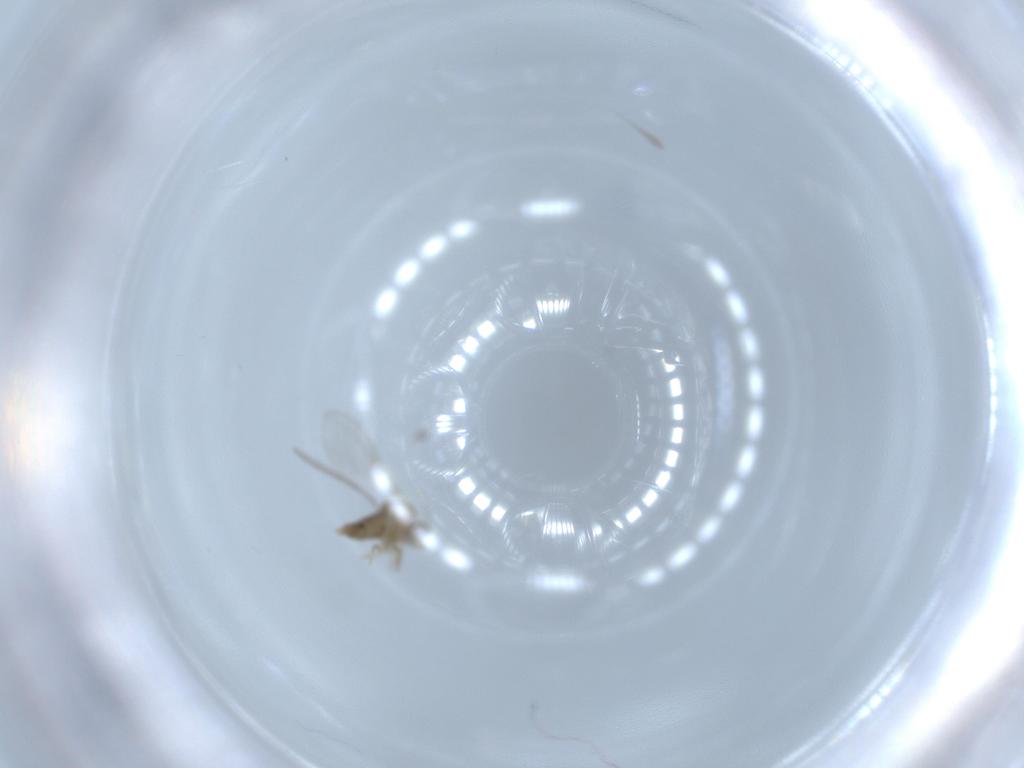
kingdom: Animalia
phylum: Arthropoda
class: Insecta
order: Diptera
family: Cecidomyiidae
